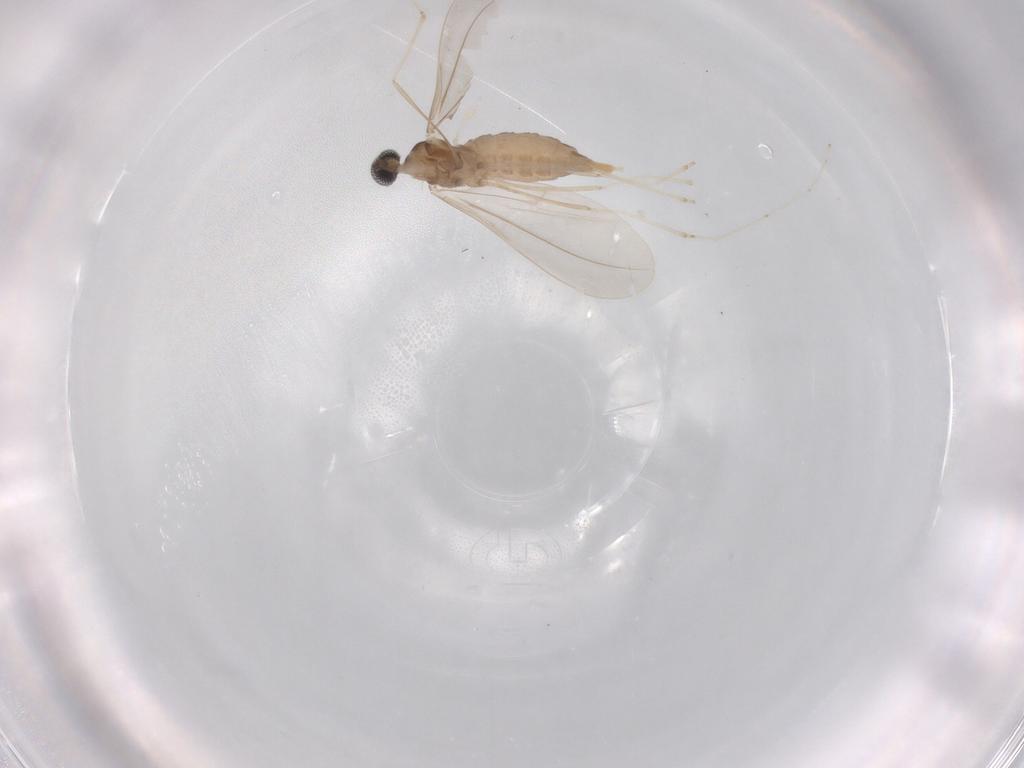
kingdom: Animalia
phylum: Arthropoda
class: Insecta
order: Diptera
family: Cecidomyiidae
